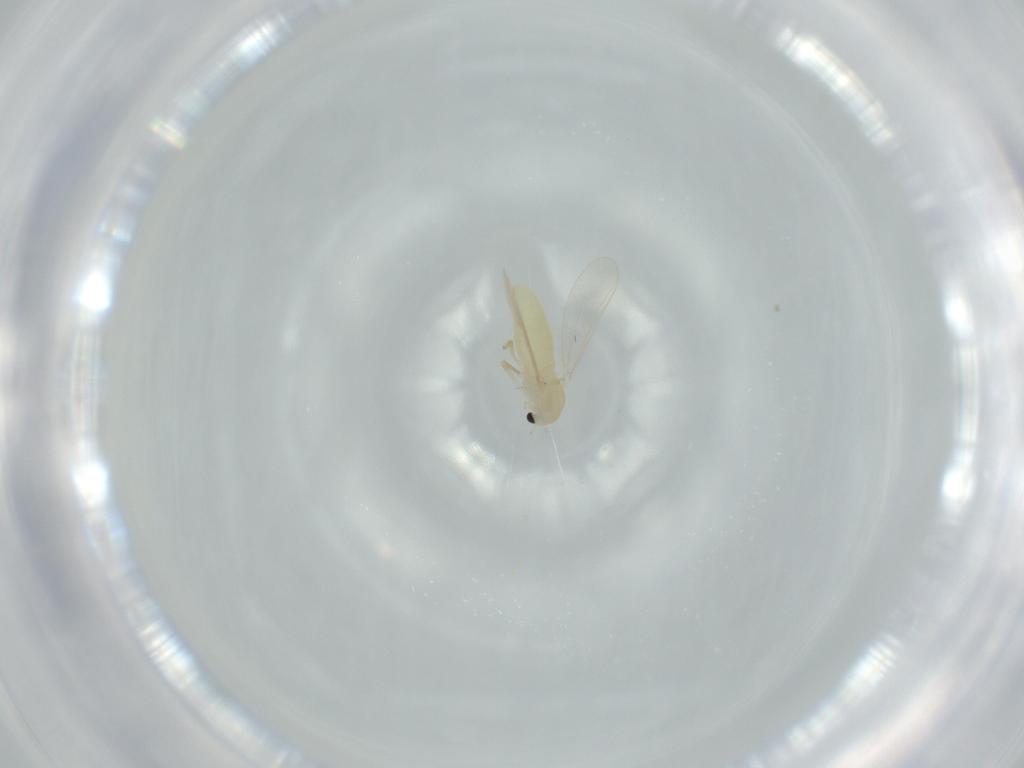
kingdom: Animalia
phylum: Arthropoda
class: Insecta
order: Diptera
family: Chironomidae
